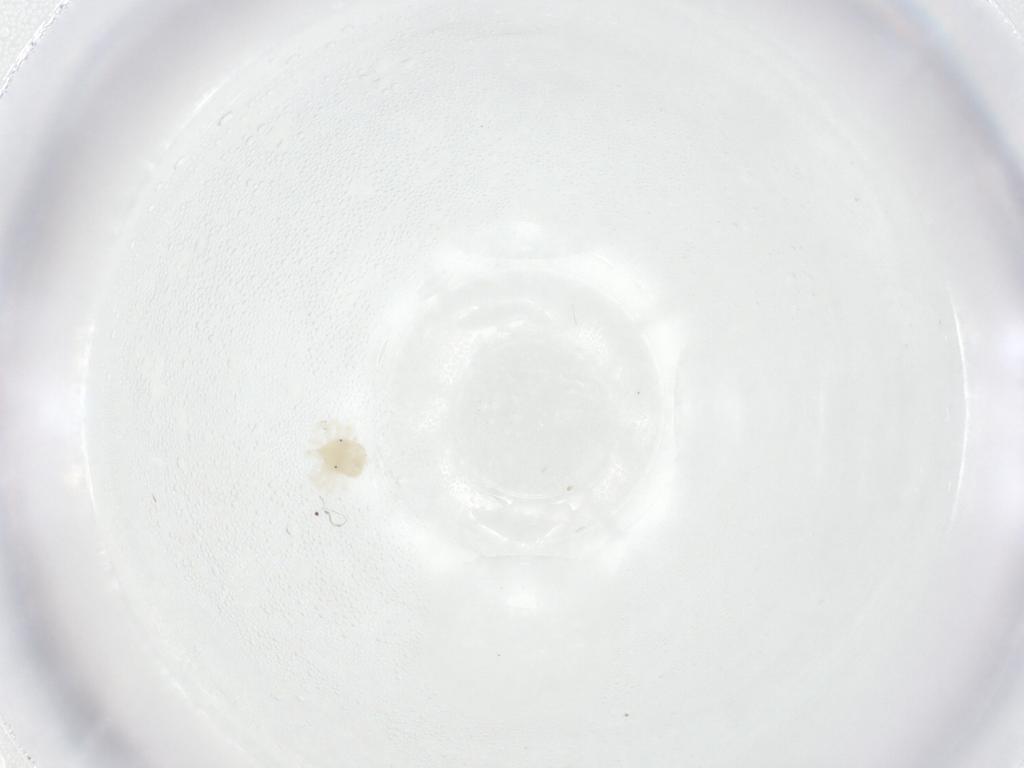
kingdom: Animalia
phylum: Arthropoda
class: Arachnida
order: Trombidiformes
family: Anystidae
